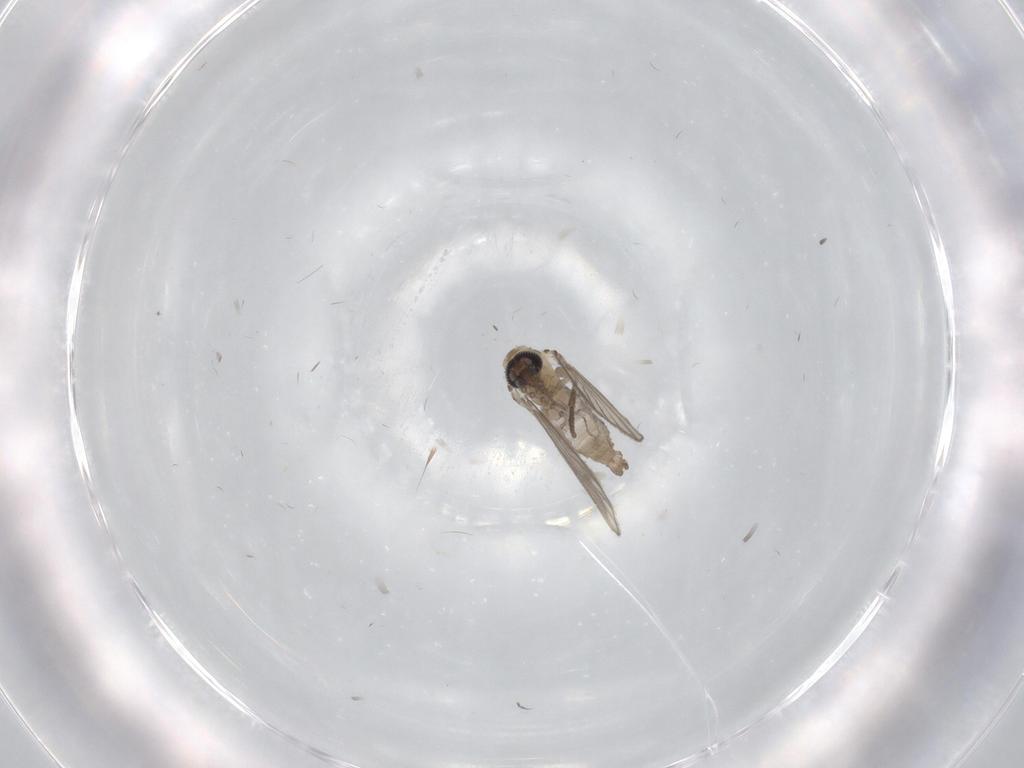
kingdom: Animalia
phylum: Arthropoda
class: Insecta
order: Diptera
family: Psychodidae
